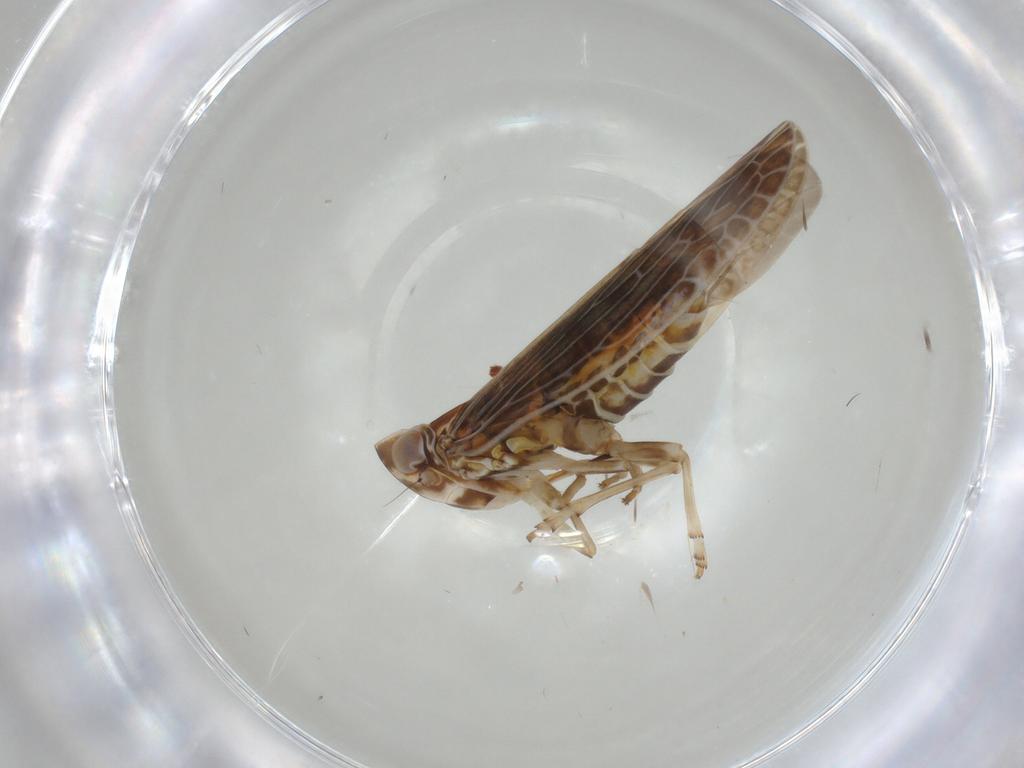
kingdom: Animalia
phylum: Arthropoda
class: Insecta
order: Hemiptera
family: Achilidae
